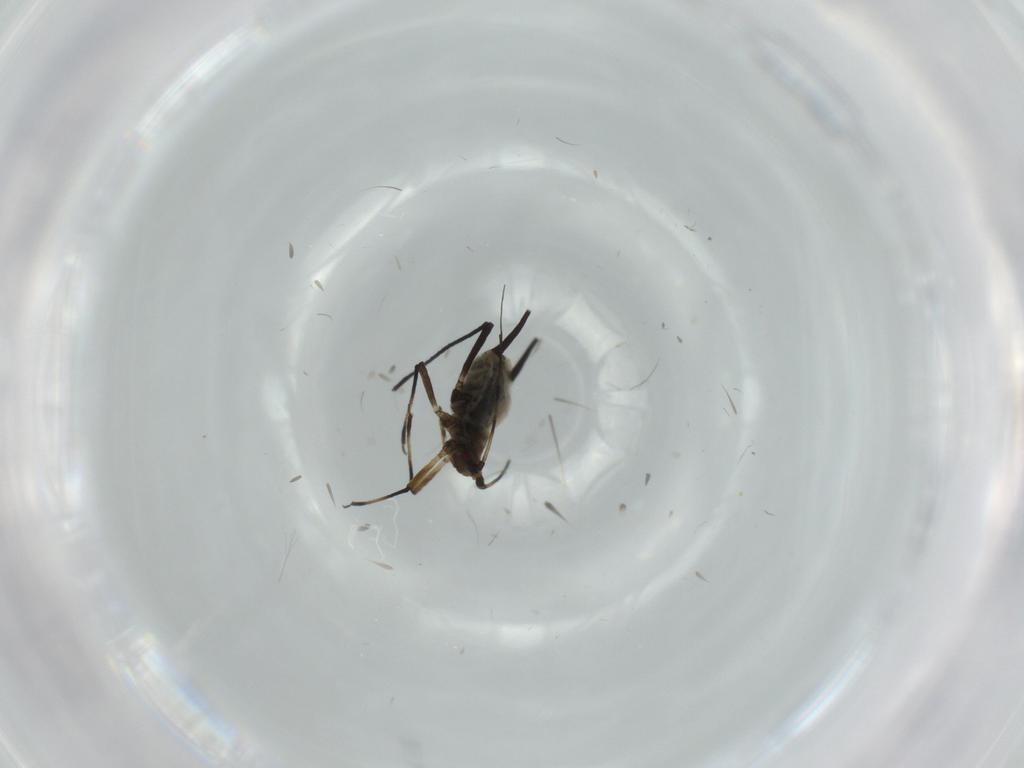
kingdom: Animalia
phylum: Arthropoda
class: Insecta
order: Hemiptera
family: Aphididae
